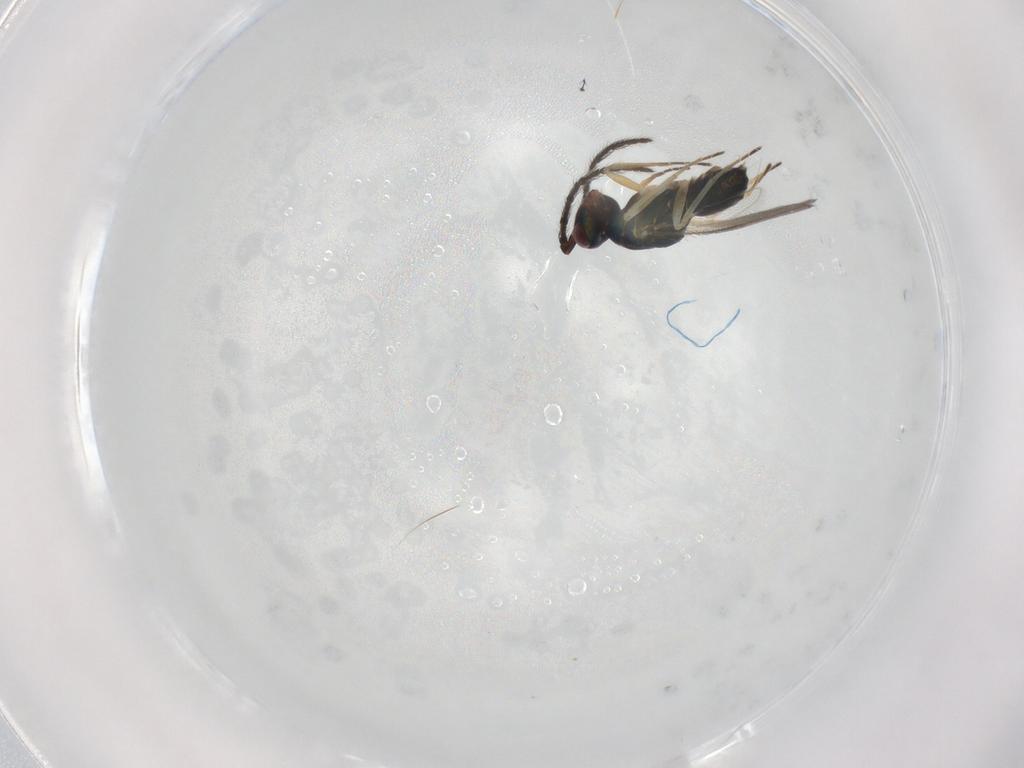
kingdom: Animalia
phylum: Arthropoda
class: Insecta
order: Hymenoptera
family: Eulophidae
